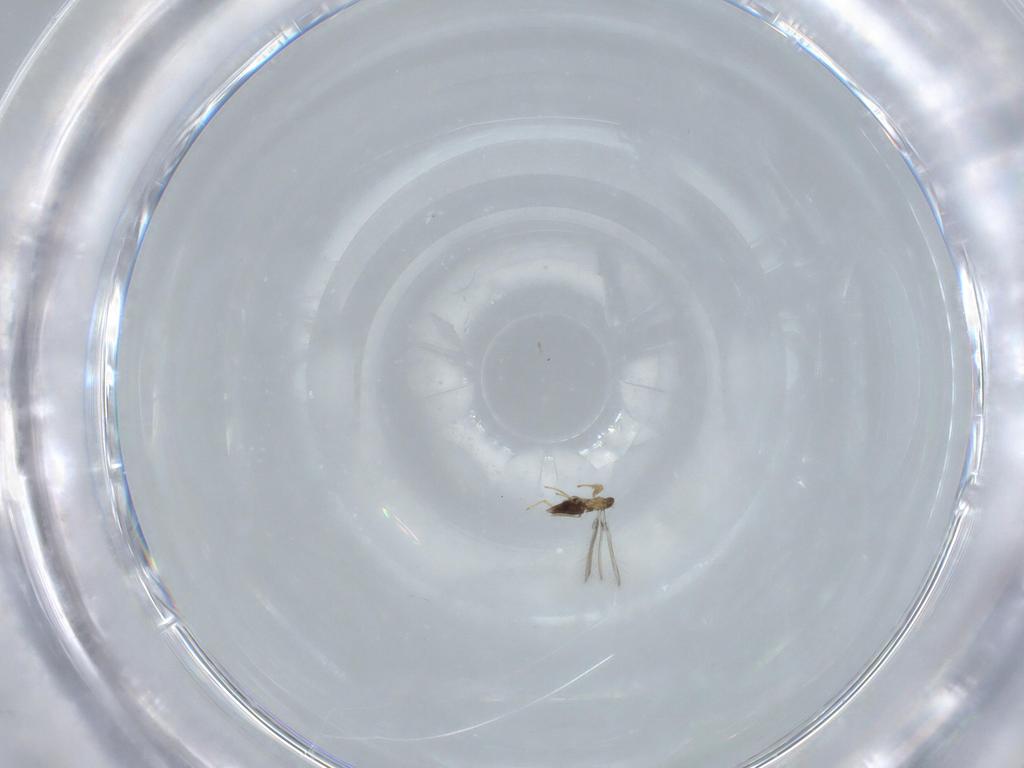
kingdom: Animalia
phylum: Arthropoda
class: Insecta
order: Hymenoptera
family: Mymaridae
